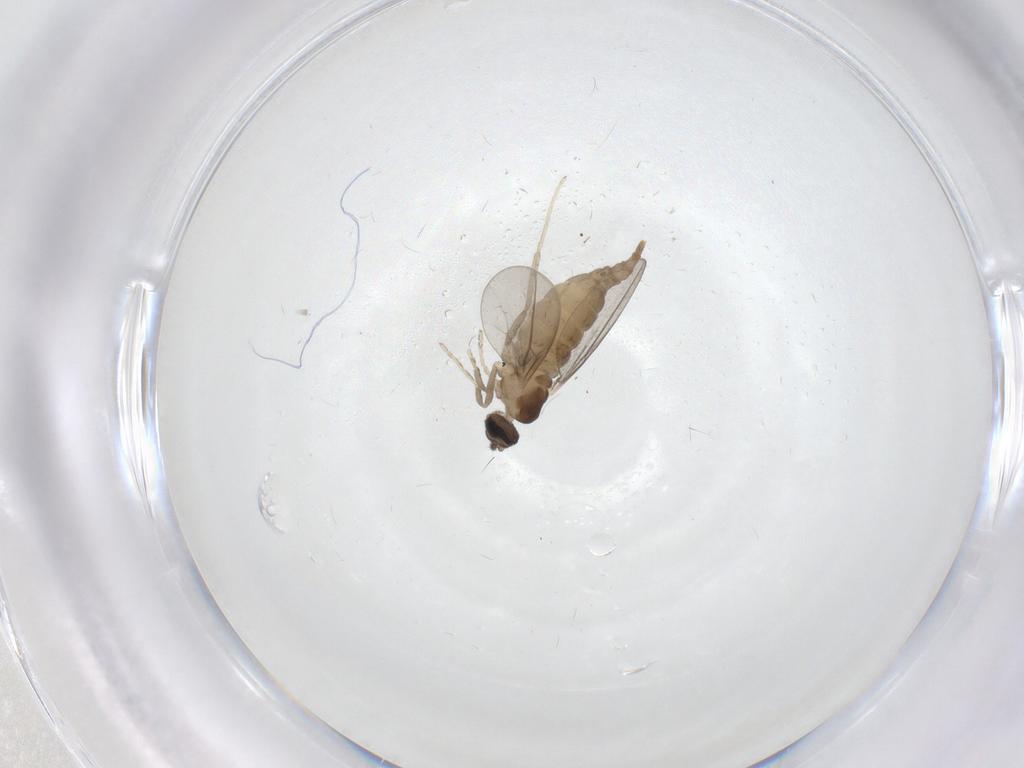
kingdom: Animalia
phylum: Arthropoda
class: Insecta
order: Diptera
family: Cecidomyiidae
